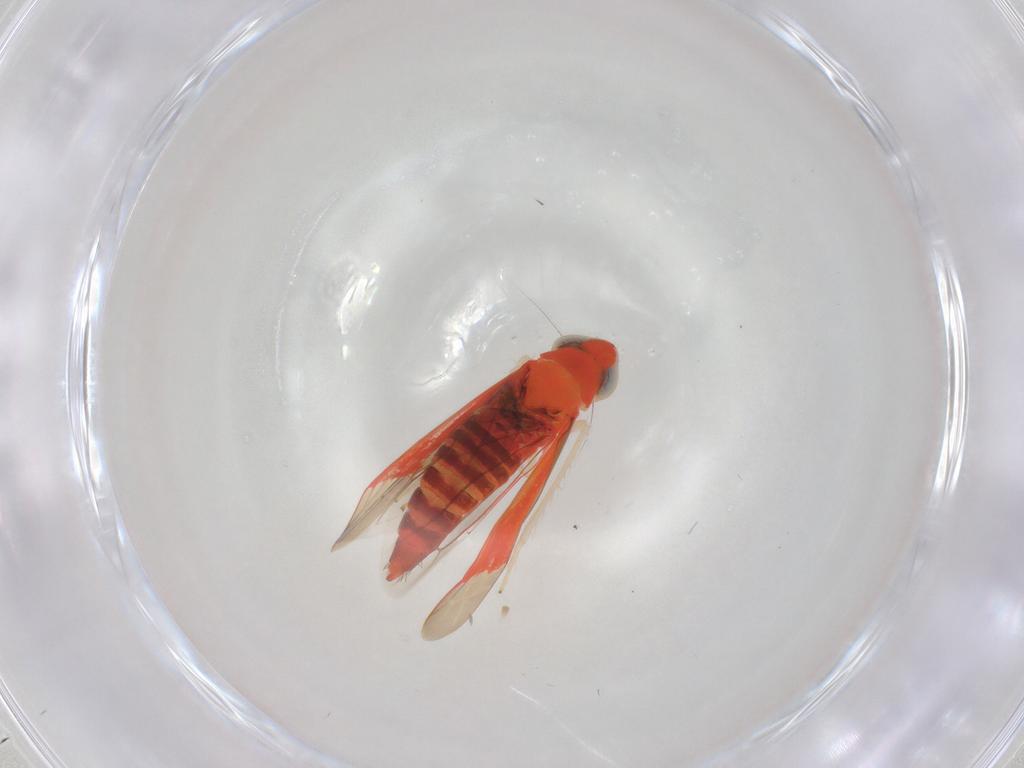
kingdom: Animalia
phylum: Arthropoda
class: Insecta
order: Hemiptera
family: Cicadellidae
